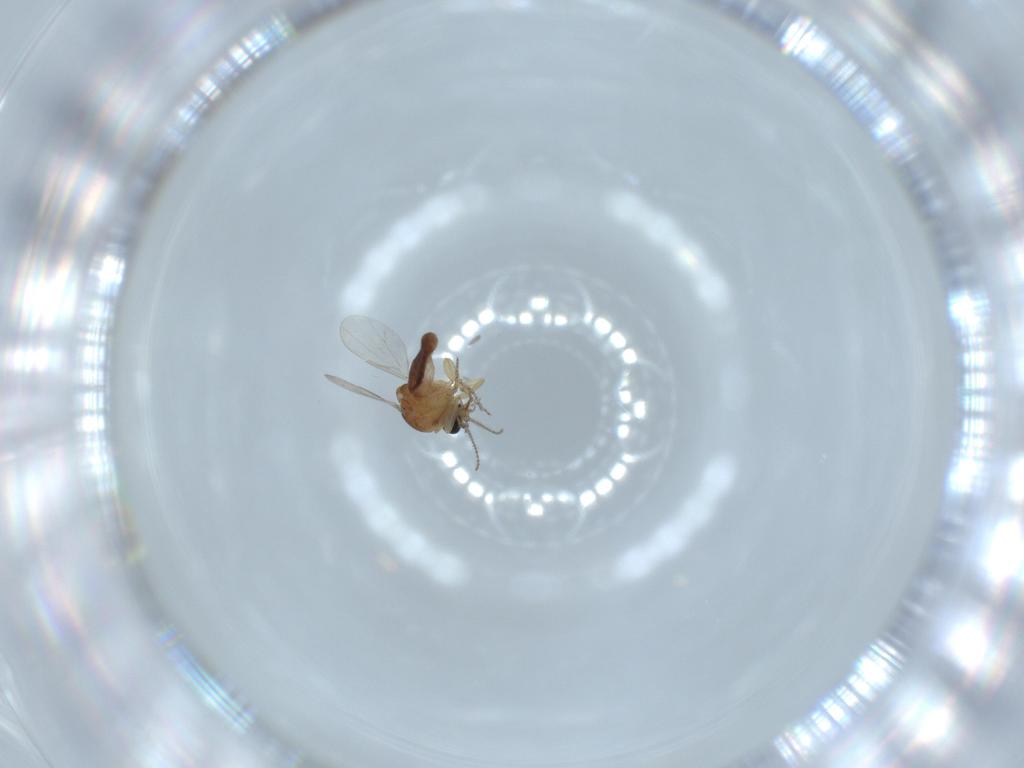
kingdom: Animalia
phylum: Arthropoda
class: Insecta
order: Diptera
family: Ceratopogonidae
